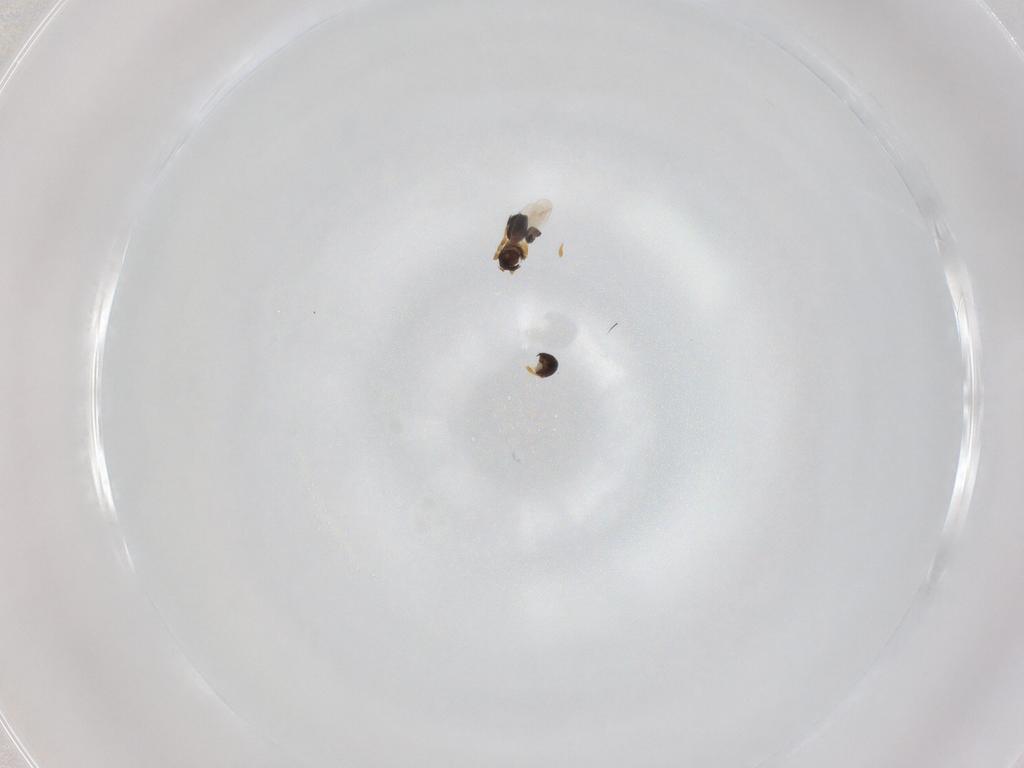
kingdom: Animalia
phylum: Arthropoda
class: Insecta
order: Hymenoptera
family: Platygastridae
